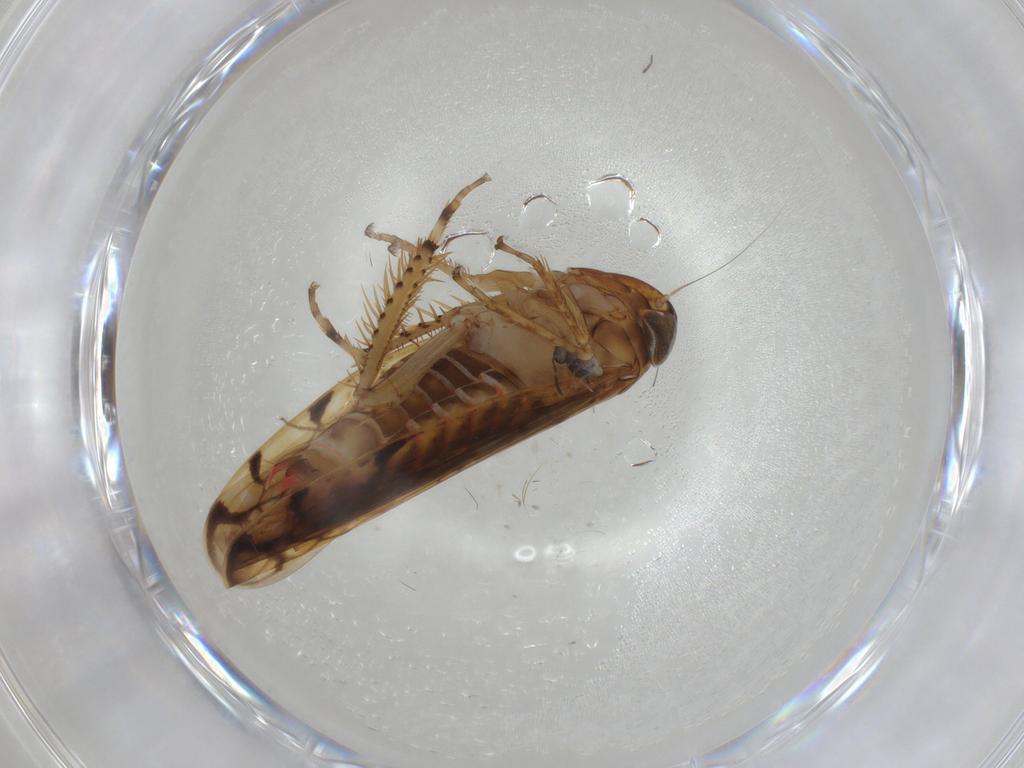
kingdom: Animalia
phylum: Arthropoda
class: Insecta
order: Hemiptera
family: Cicadellidae
